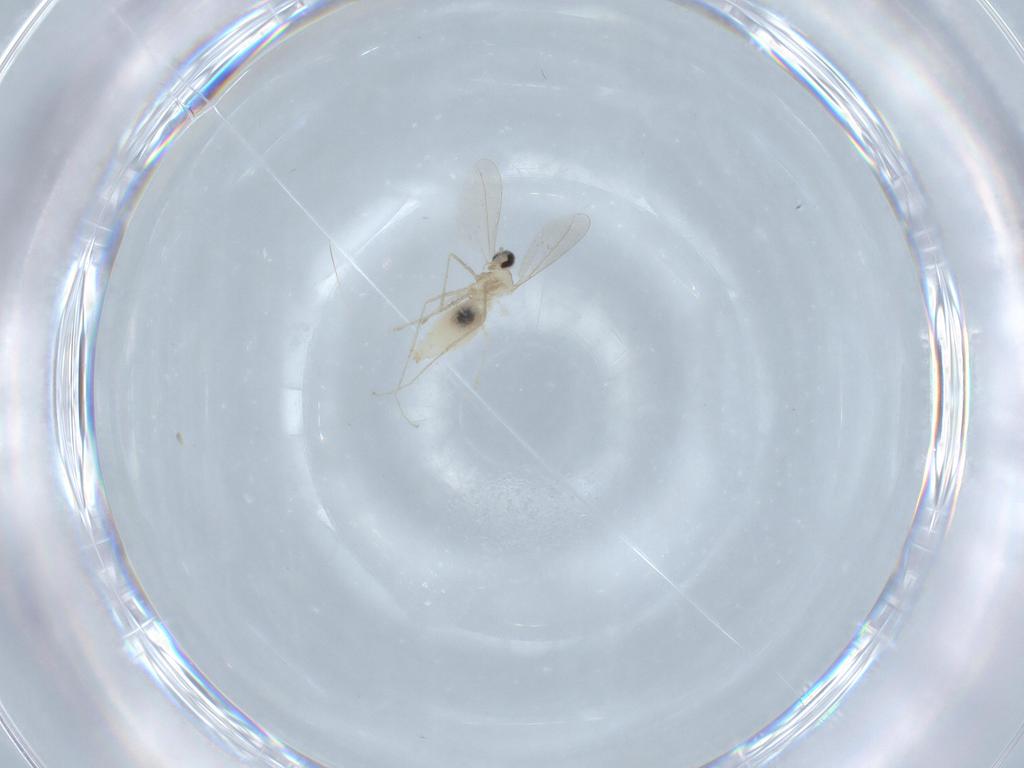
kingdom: Animalia
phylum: Arthropoda
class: Insecta
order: Diptera
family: Cecidomyiidae
